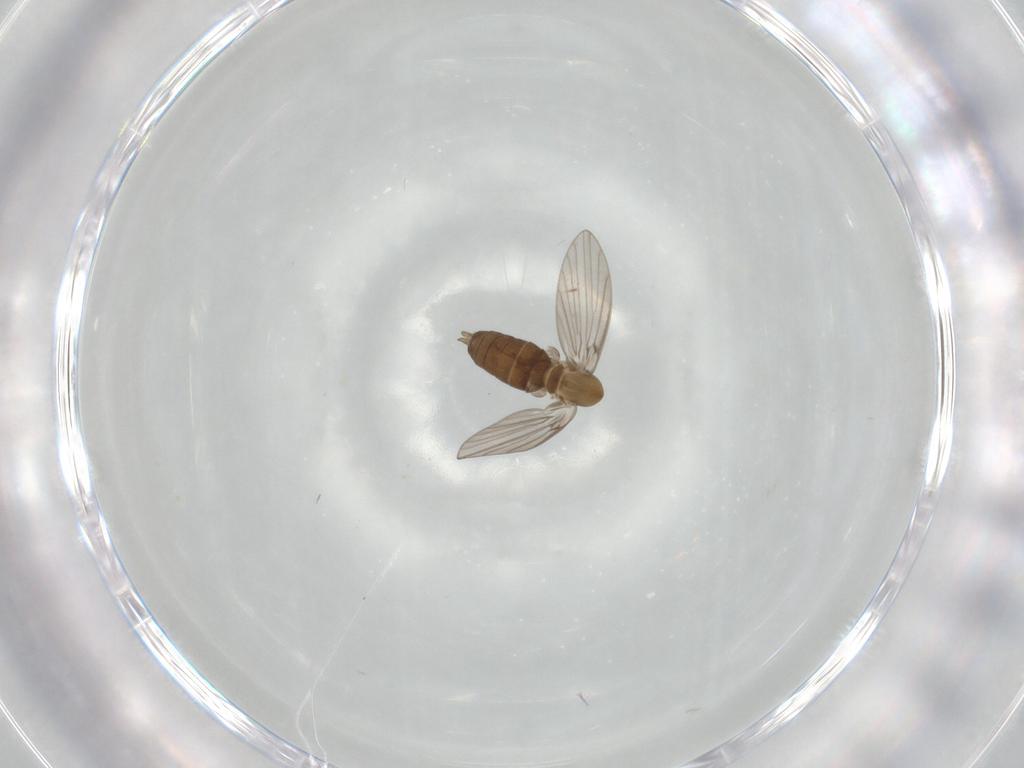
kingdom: Animalia
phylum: Arthropoda
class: Insecta
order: Diptera
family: Psychodidae
